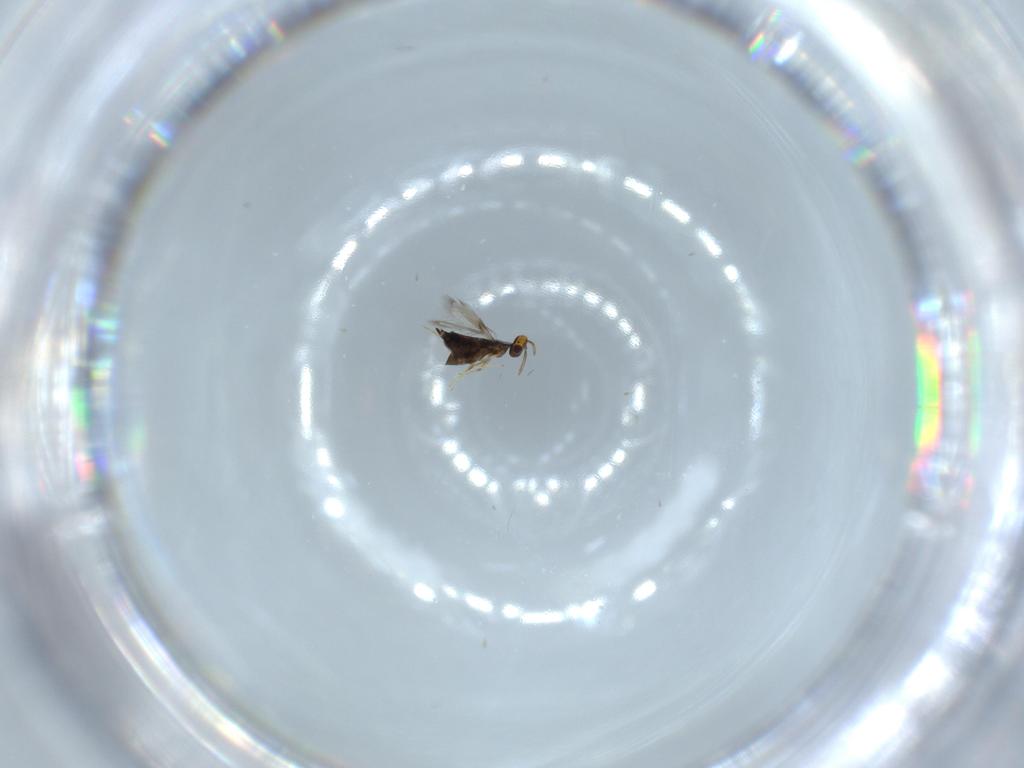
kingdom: Animalia
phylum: Arthropoda
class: Insecta
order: Hymenoptera
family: Signiphoridae
